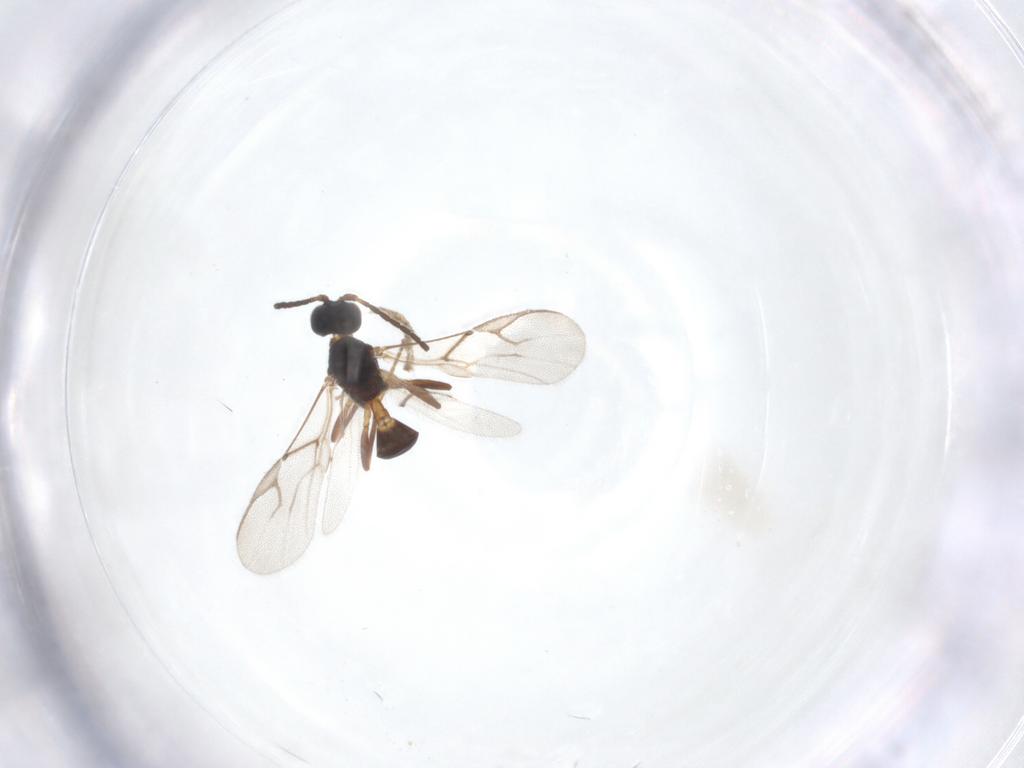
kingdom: Animalia
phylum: Arthropoda
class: Insecta
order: Hymenoptera
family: Braconidae
